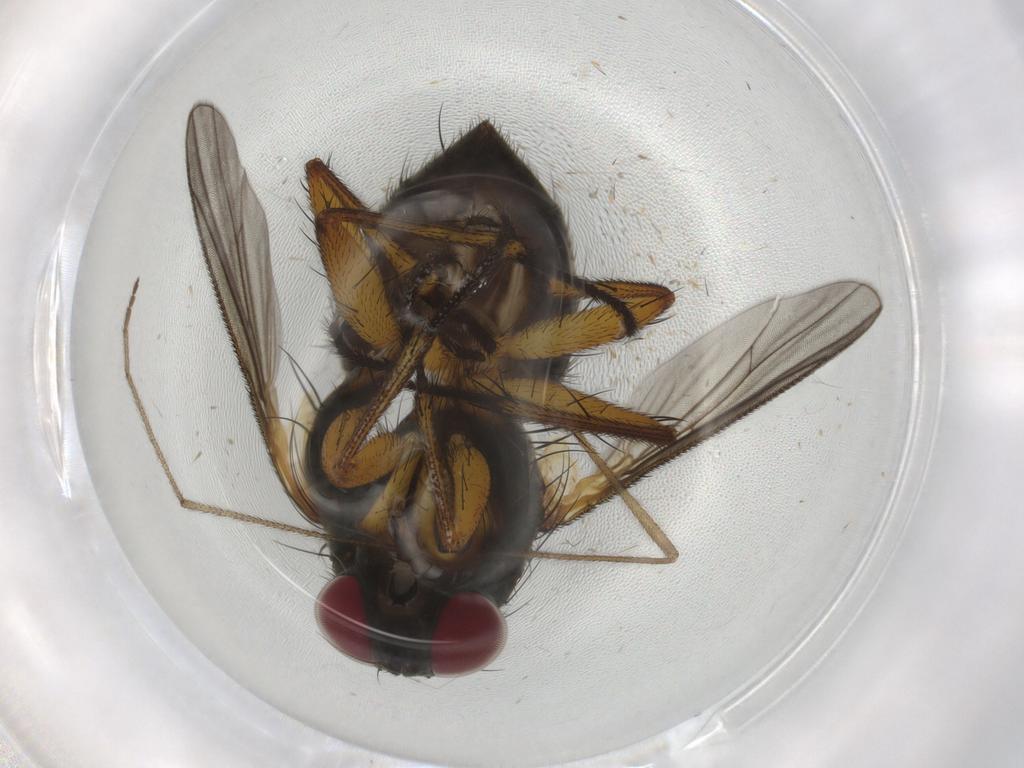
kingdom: Animalia
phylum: Arthropoda
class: Insecta
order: Diptera
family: Muscidae
